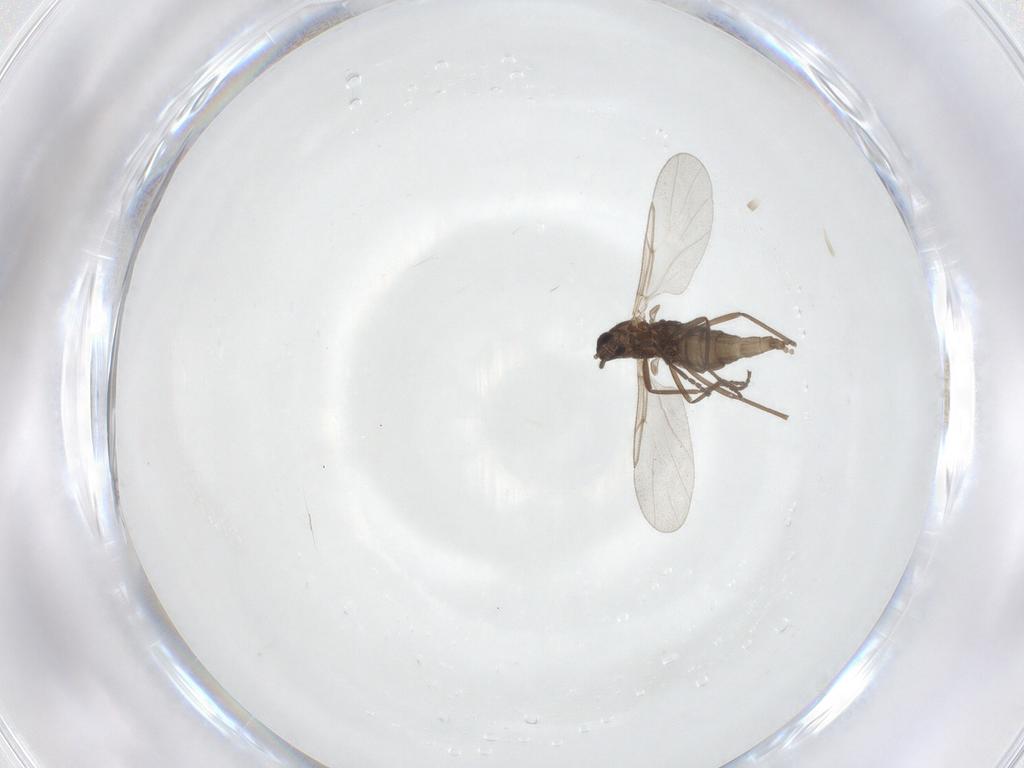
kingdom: Animalia
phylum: Arthropoda
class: Insecta
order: Diptera
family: Cecidomyiidae
